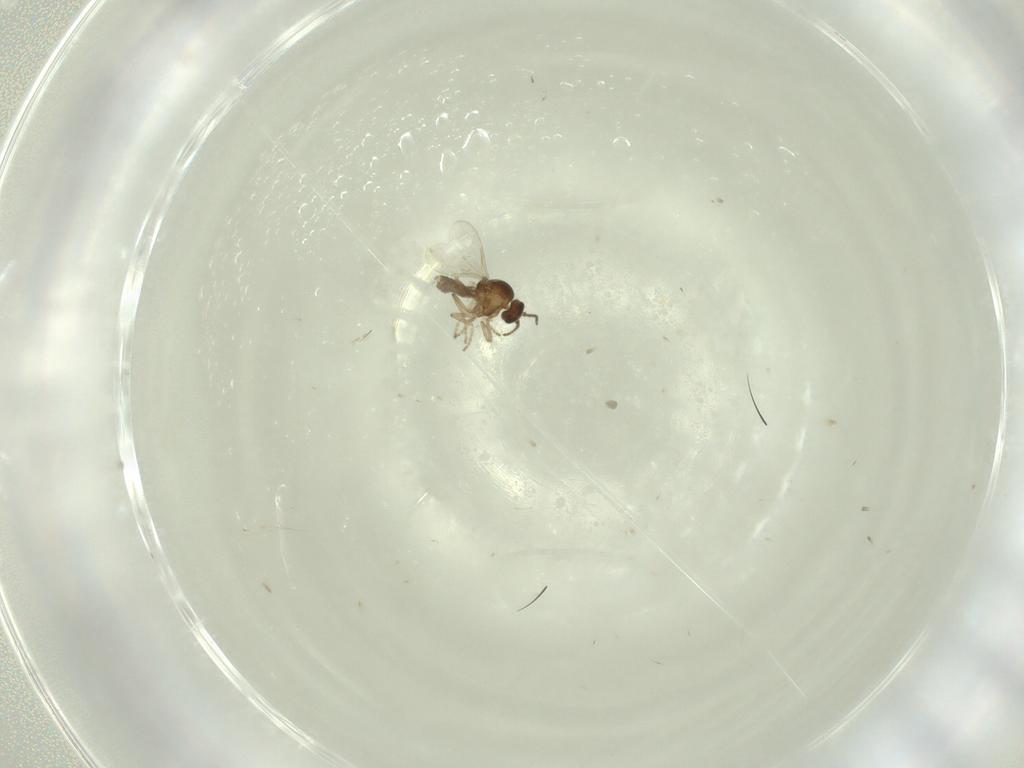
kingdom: Animalia
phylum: Arthropoda
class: Insecta
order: Diptera
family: Ceratopogonidae
